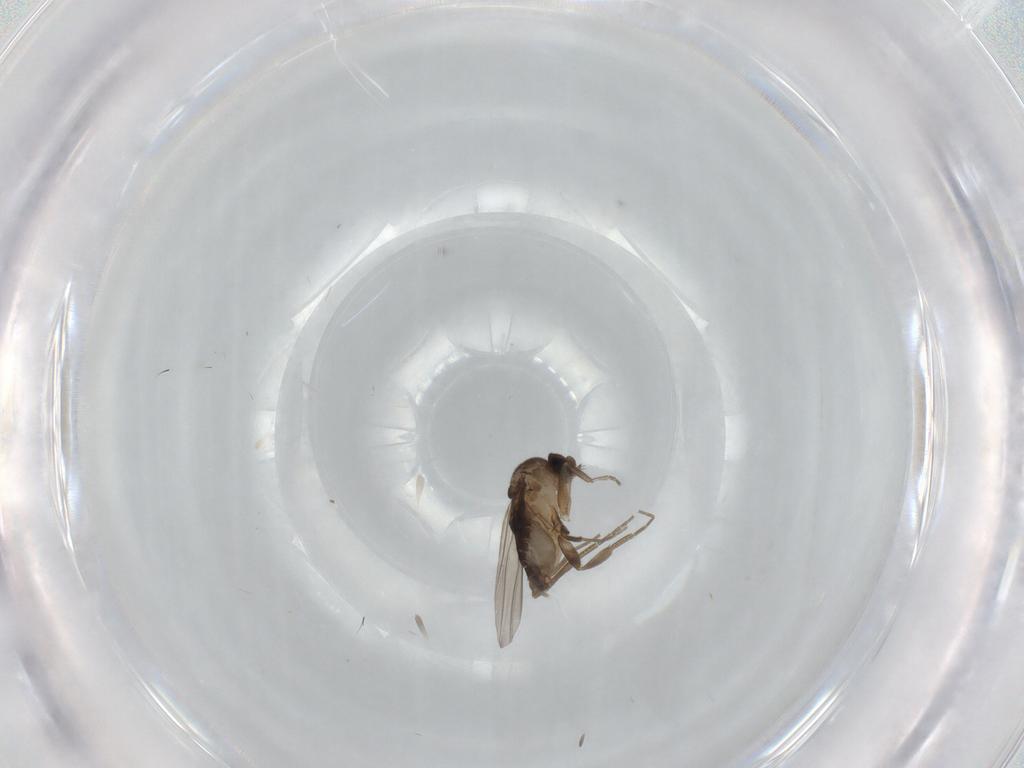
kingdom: Animalia
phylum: Arthropoda
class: Insecta
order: Diptera
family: Phoridae
